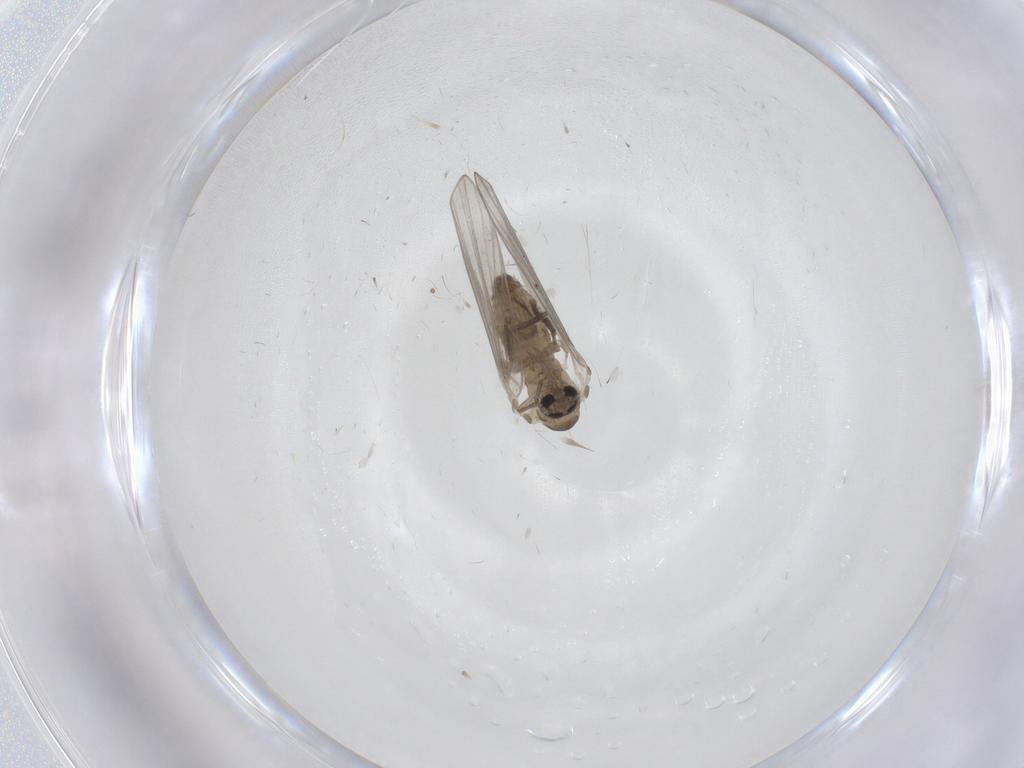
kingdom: Animalia
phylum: Arthropoda
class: Insecta
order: Diptera
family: Psychodidae
